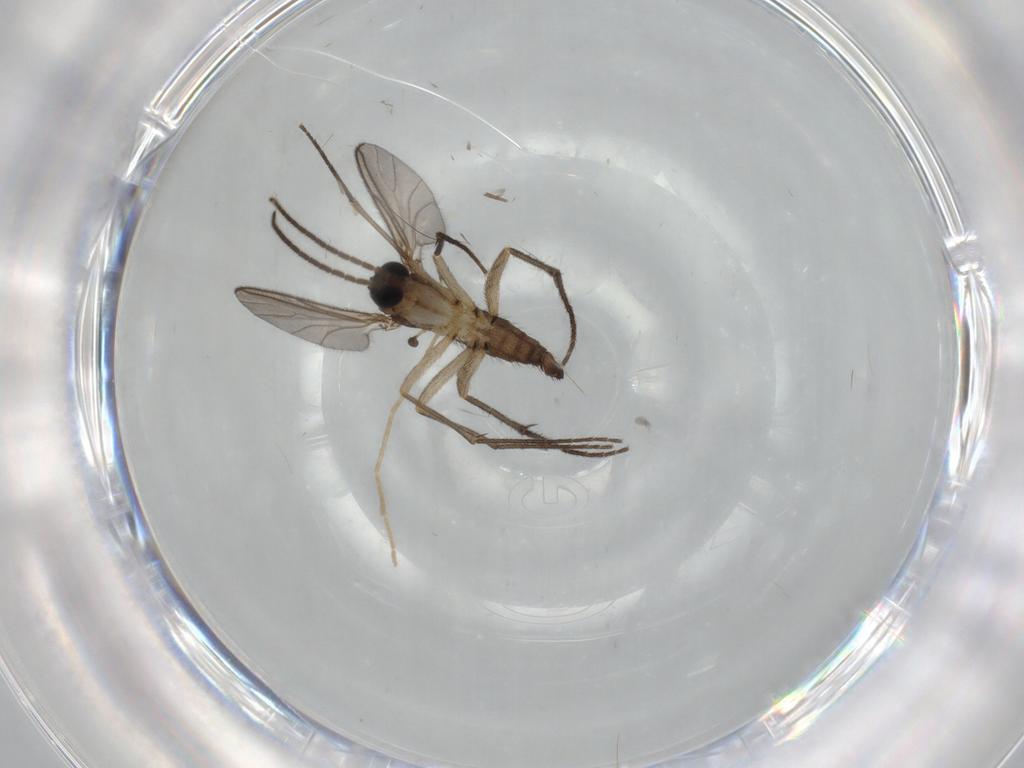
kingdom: Animalia
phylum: Arthropoda
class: Insecta
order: Diptera
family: Sciaridae
